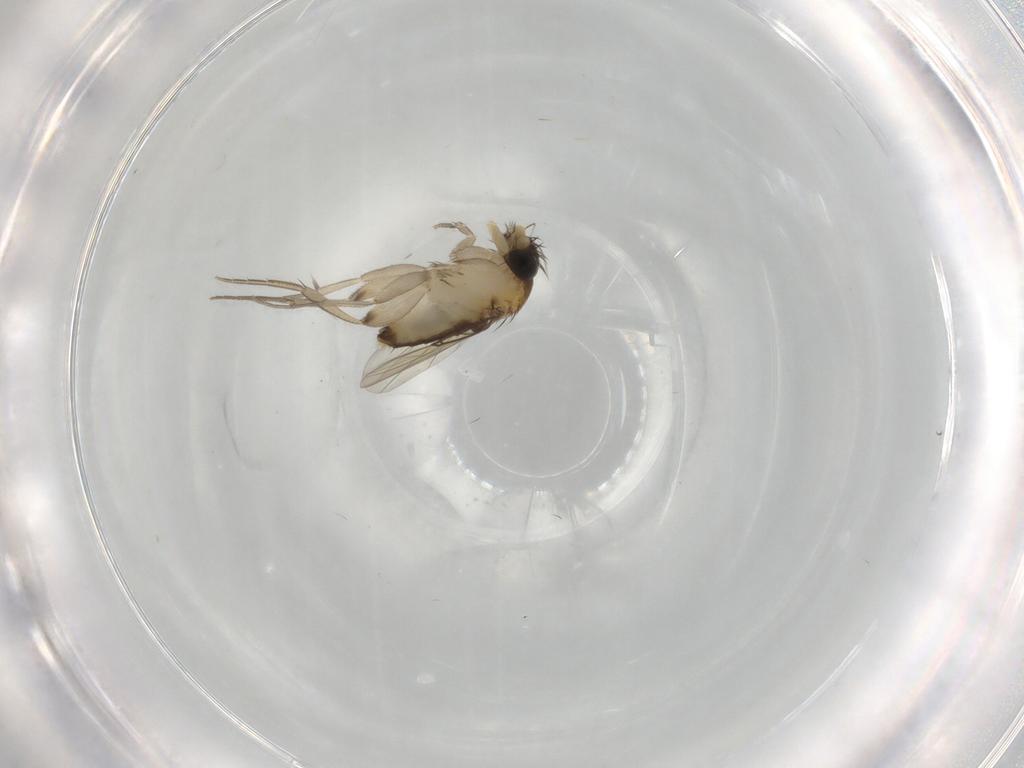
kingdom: Animalia
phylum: Arthropoda
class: Insecta
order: Diptera
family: Phoridae
